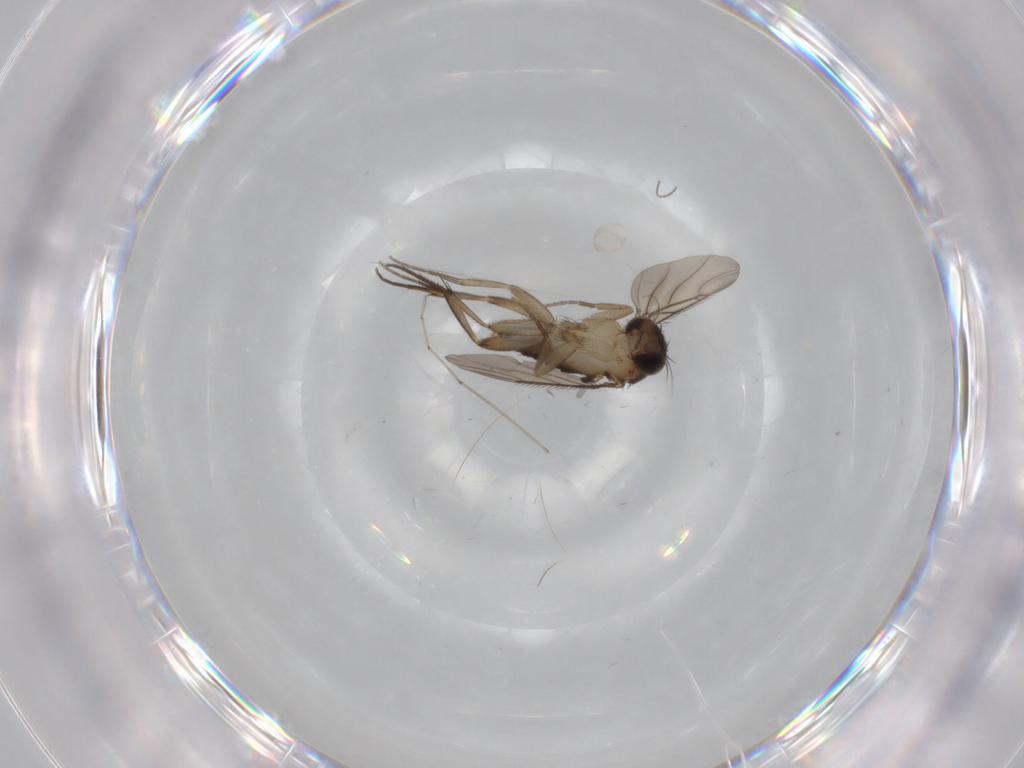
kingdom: Animalia
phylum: Arthropoda
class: Insecta
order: Diptera
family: Phoridae
